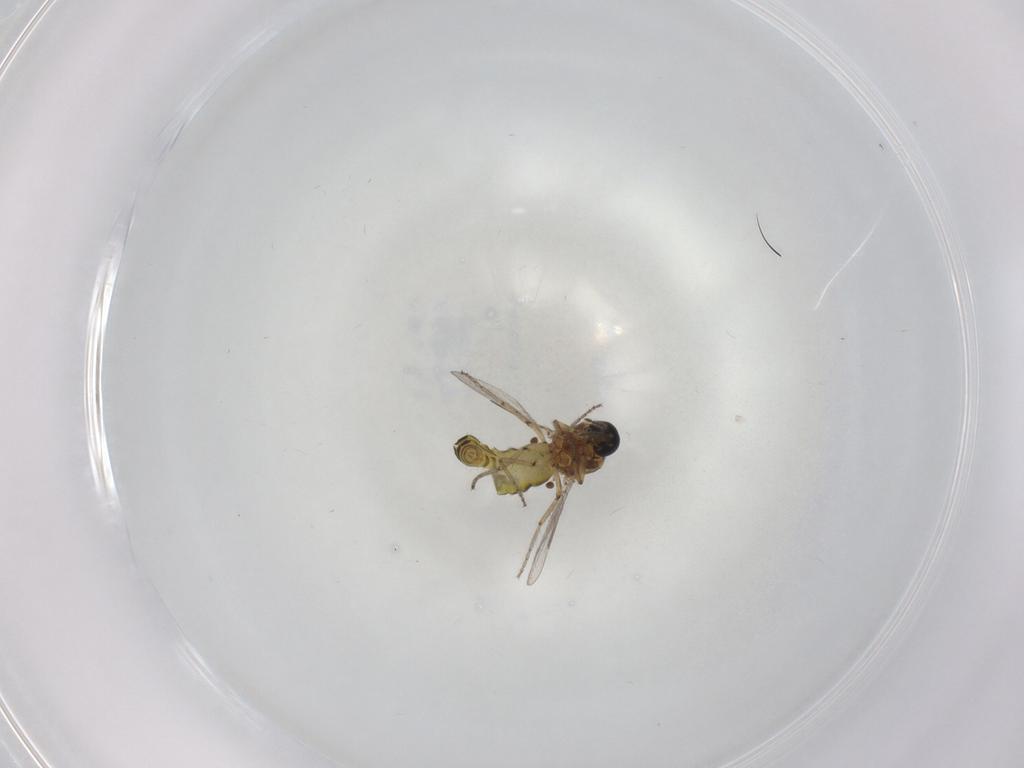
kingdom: Animalia
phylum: Arthropoda
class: Insecta
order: Diptera
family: Ceratopogonidae
